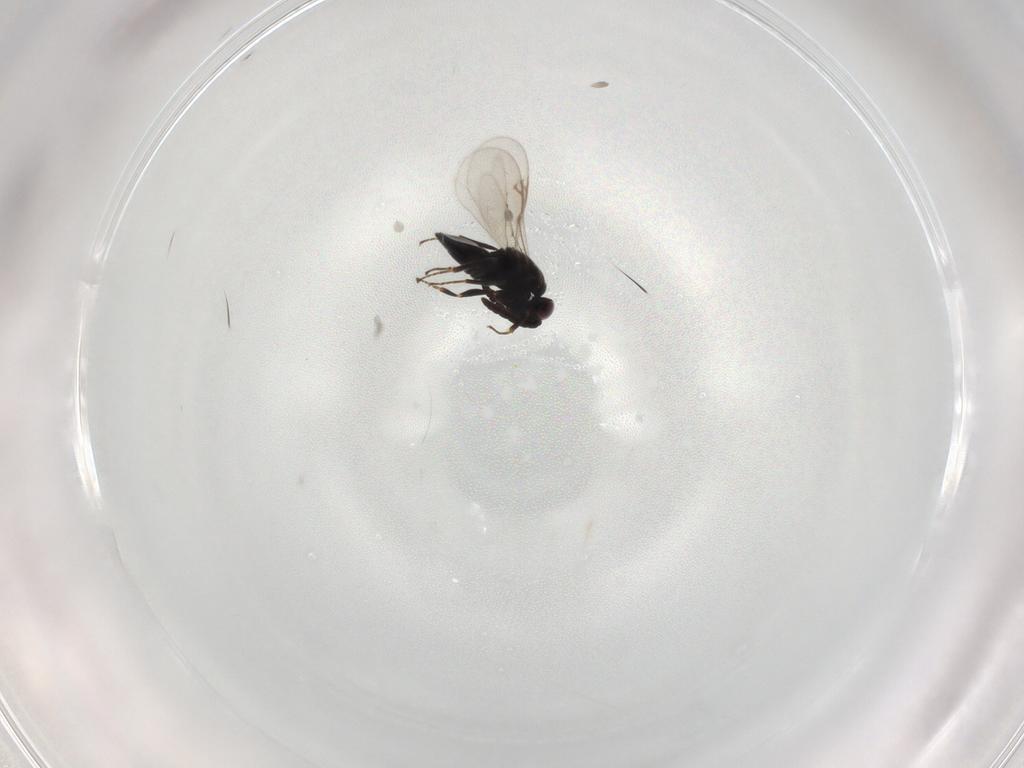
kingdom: Animalia
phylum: Arthropoda
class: Insecta
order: Hymenoptera
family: Eunotidae
